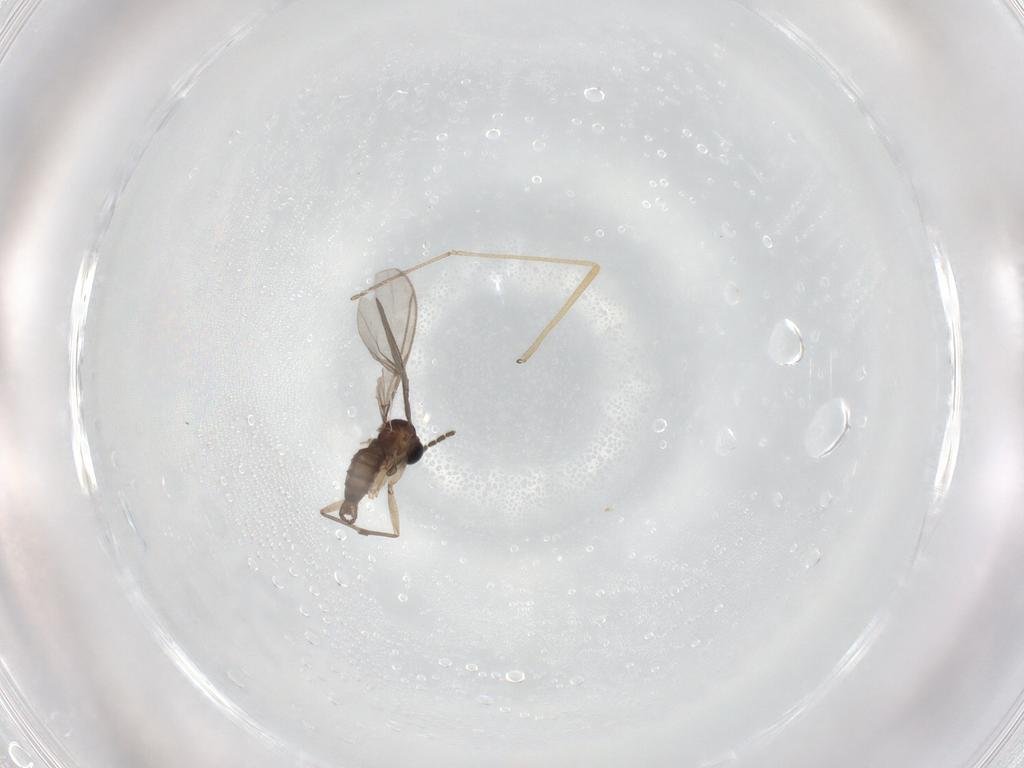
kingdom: Animalia
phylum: Arthropoda
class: Insecta
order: Diptera
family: Sciaridae
